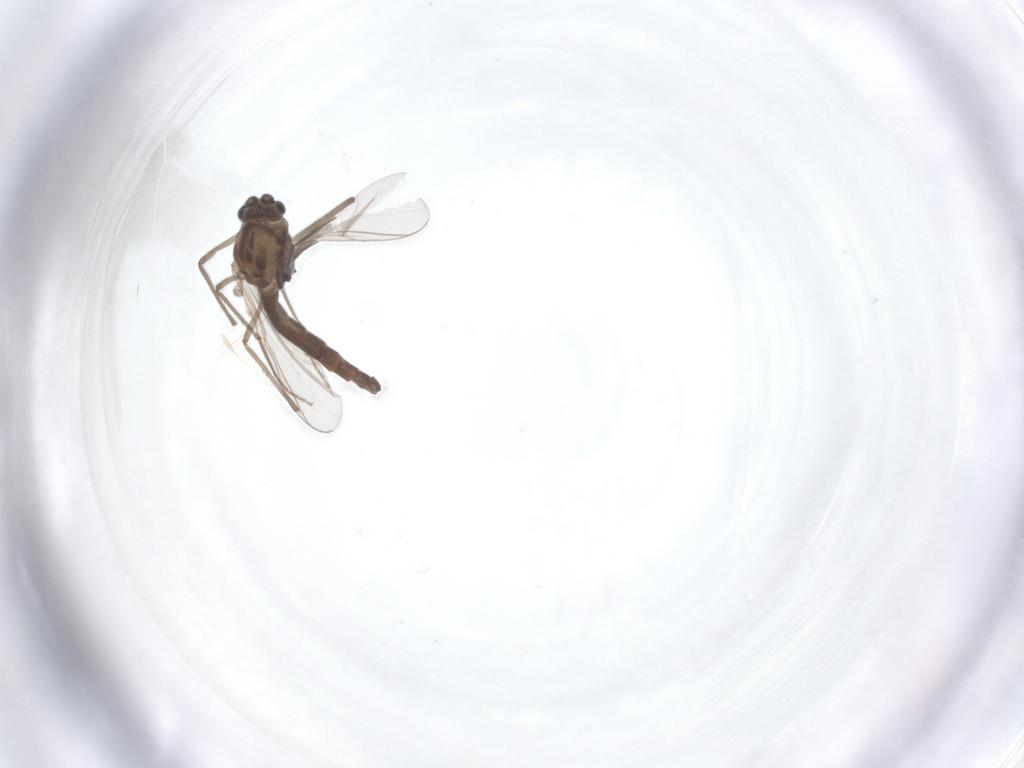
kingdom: Animalia
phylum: Arthropoda
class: Insecta
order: Diptera
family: Chironomidae
